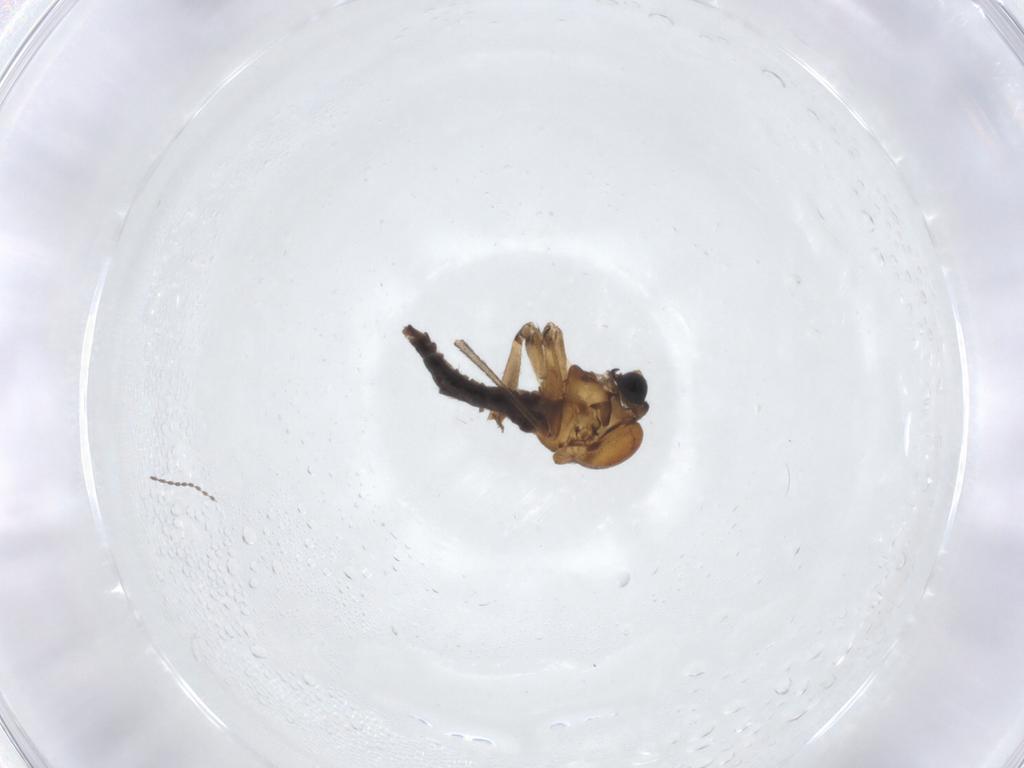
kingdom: Animalia
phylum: Arthropoda
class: Insecta
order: Diptera
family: Sciaridae
